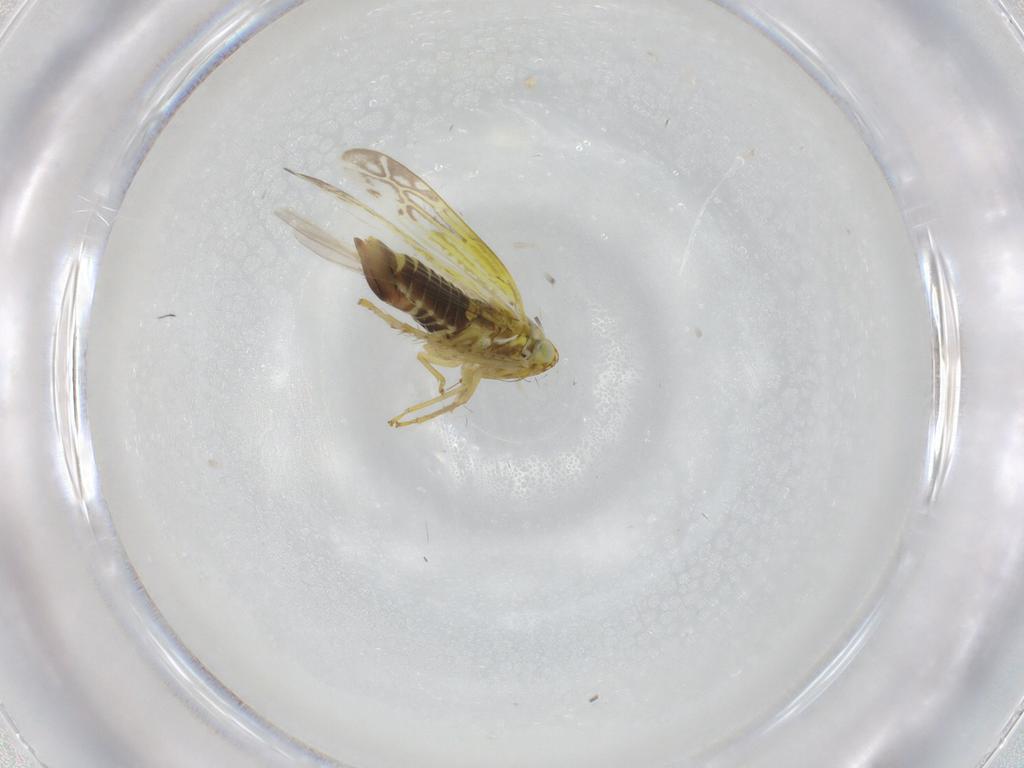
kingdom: Animalia
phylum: Arthropoda
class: Insecta
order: Hemiptera
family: Cicadellidae
